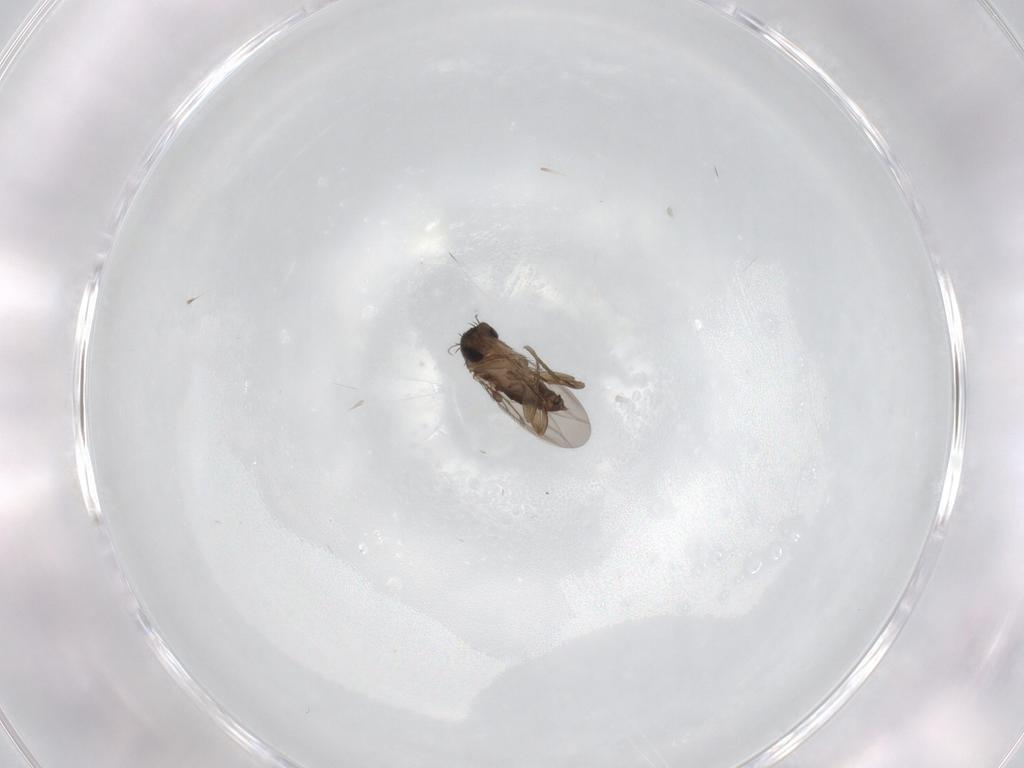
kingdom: Animalia
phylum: Arthropoda
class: Insecta
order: Diptera
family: Phoridae
